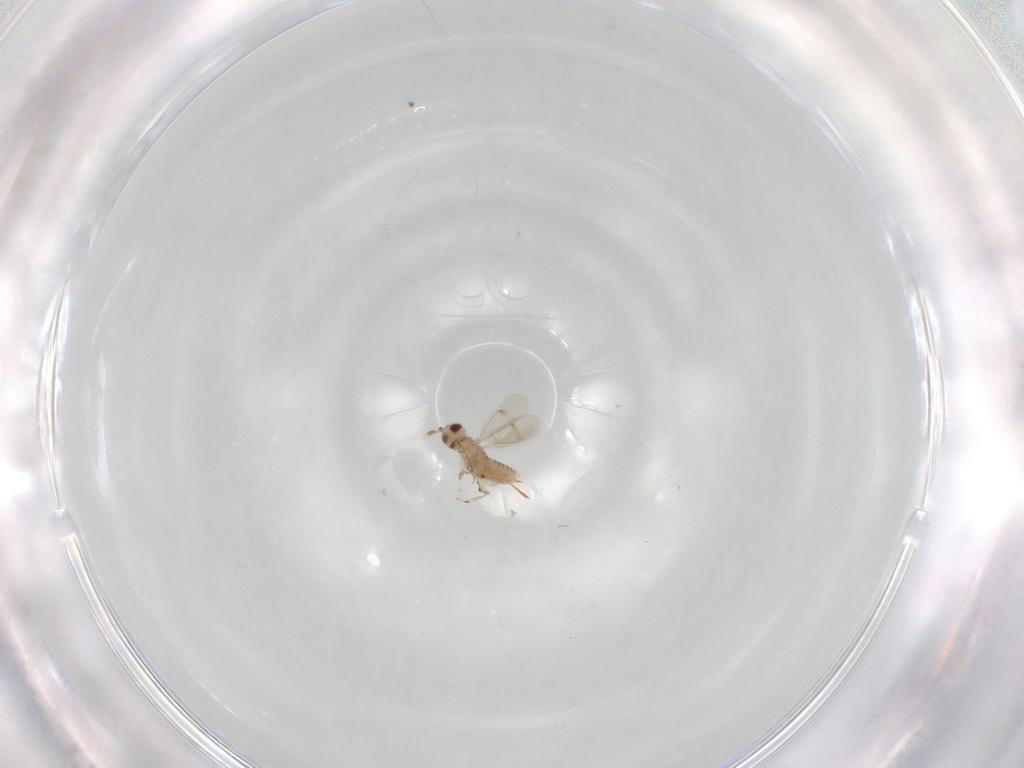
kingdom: Animalia
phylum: Arthropoda
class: Insecta
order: Hymenoptera
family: Aphelinidae
